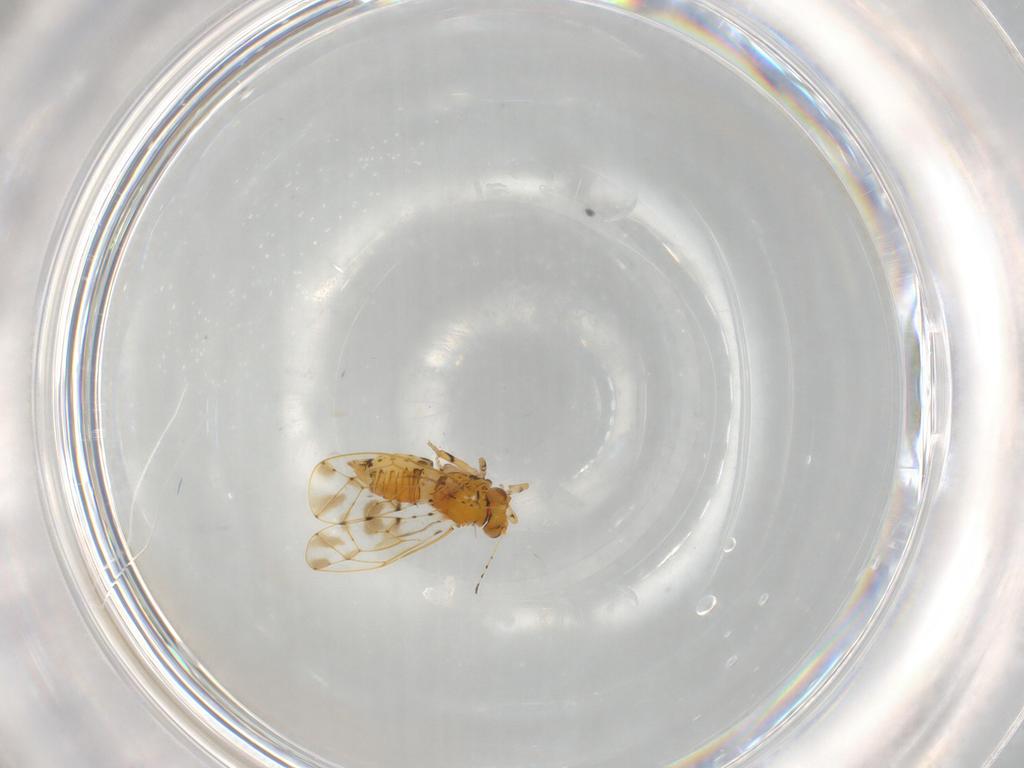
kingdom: Animalia
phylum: Arthropoda
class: Insecta
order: Hemiptera
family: Psylloidea_incertae_sedis
